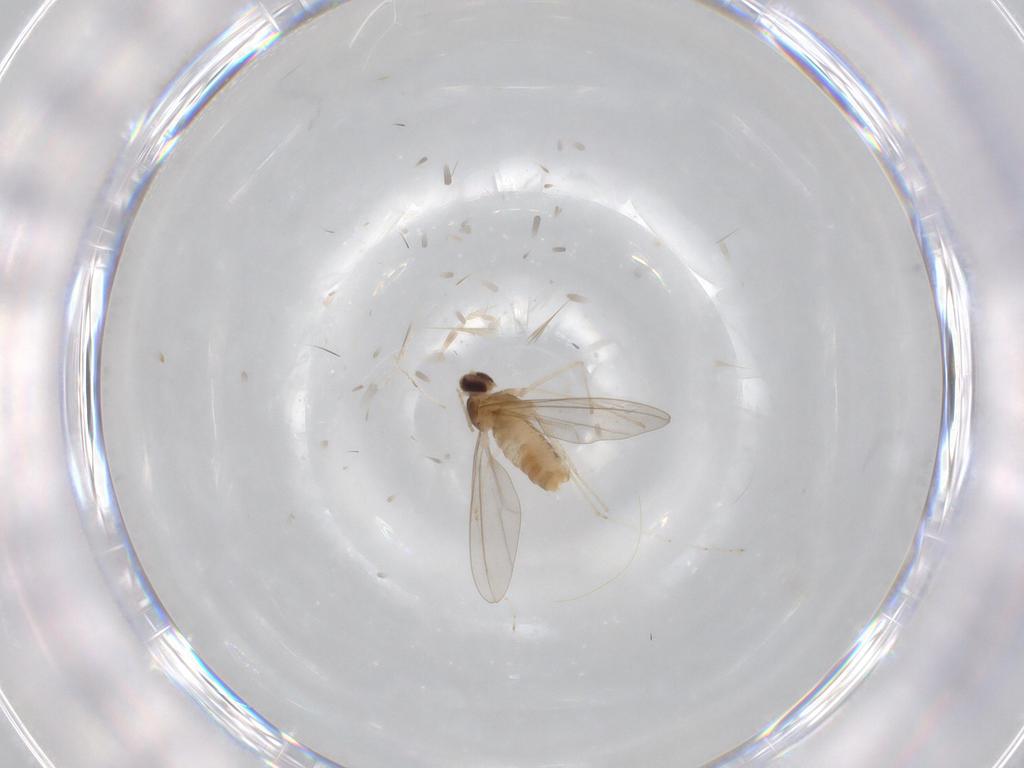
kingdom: Animalia
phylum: Arthropoda
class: Insecta
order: Diptera
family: Cecidomyiidae
